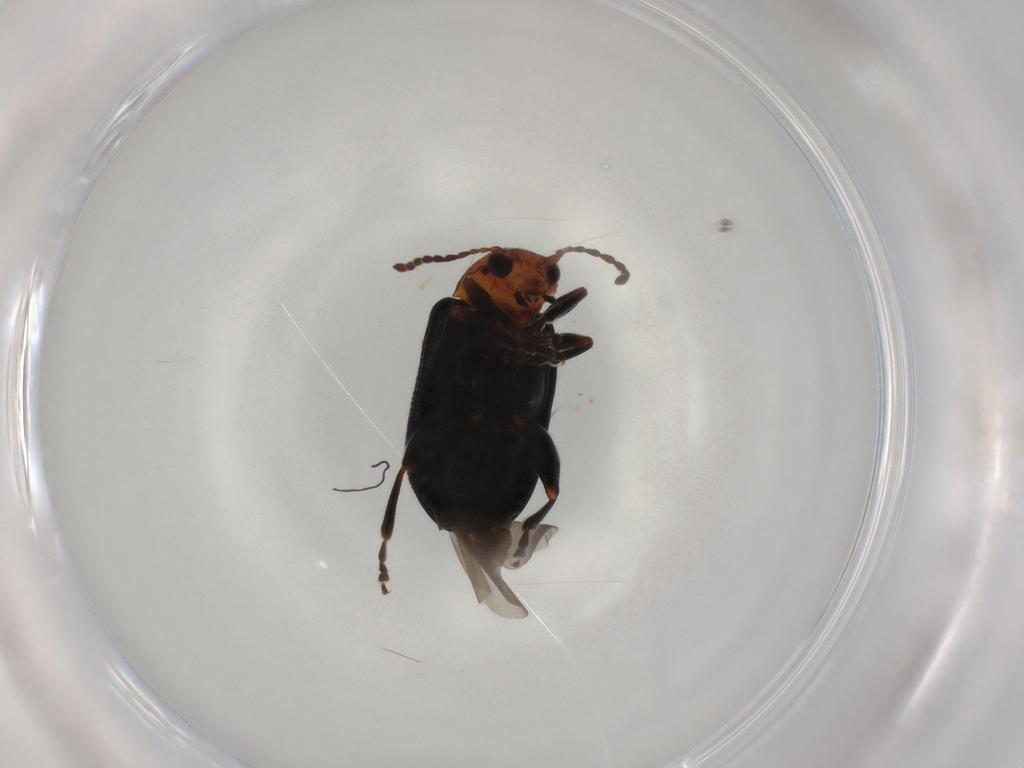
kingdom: Animalia
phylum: Arthropoda
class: Insecta
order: Coleoptera
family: Chrysomelidae
